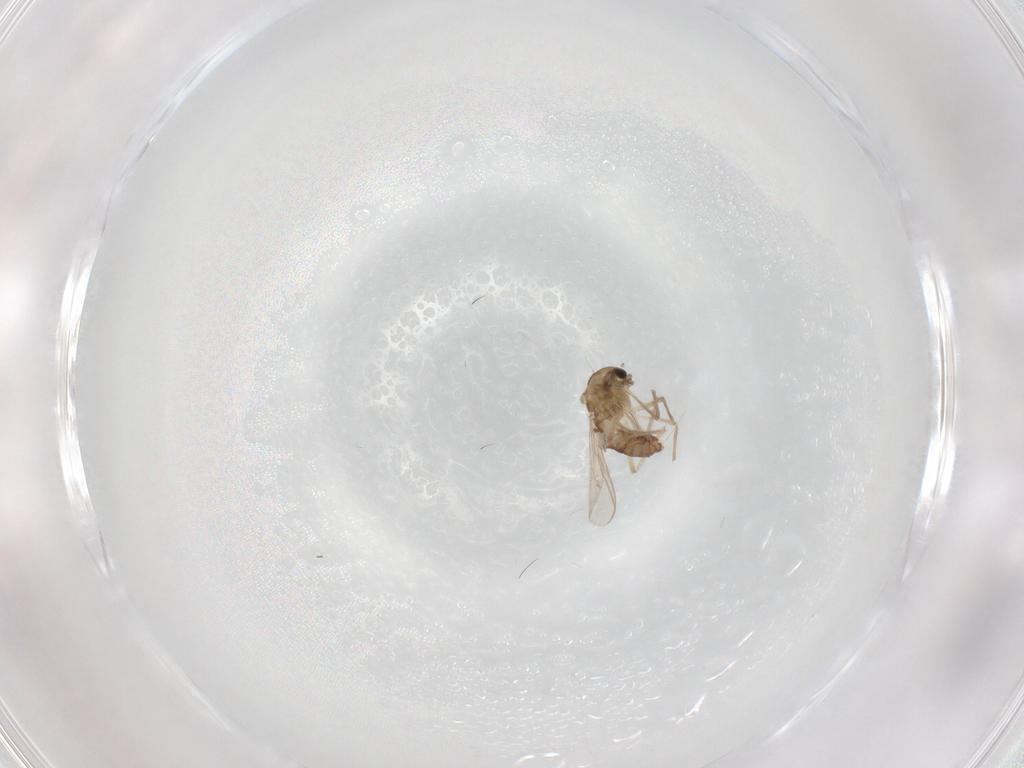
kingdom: Animalia
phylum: Arthropoda
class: Insecta
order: Diptera
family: Chironomidae
